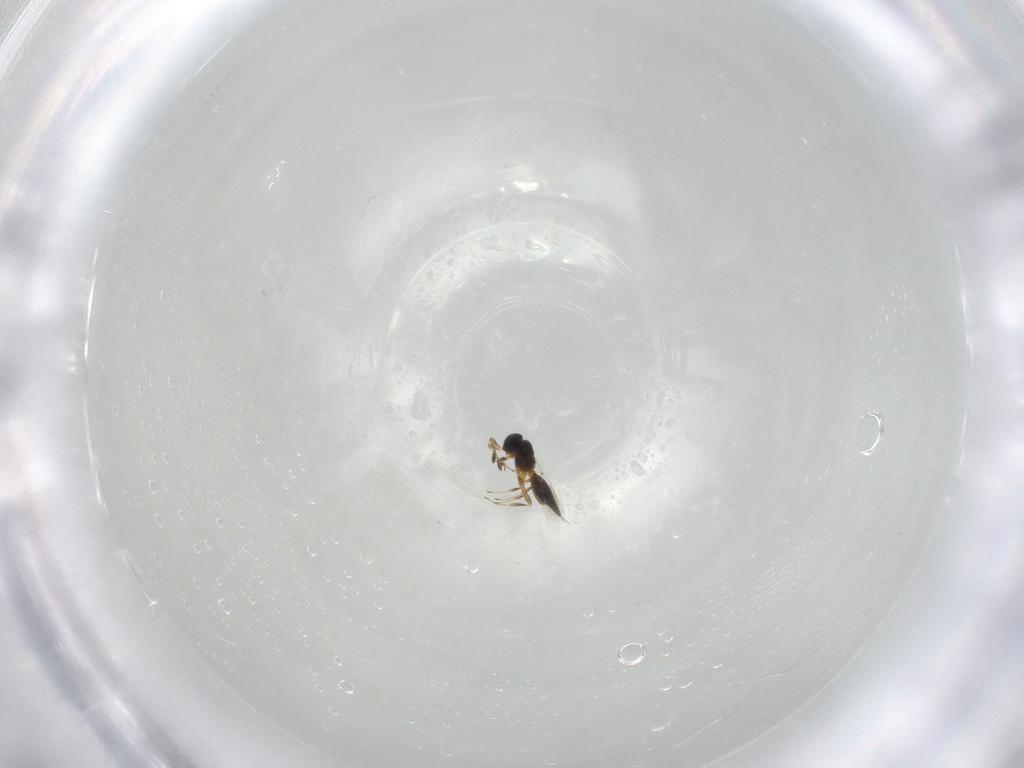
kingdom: Animalia
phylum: Arthropoda
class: Insecta
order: Hymenoptera
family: Platygastridae
